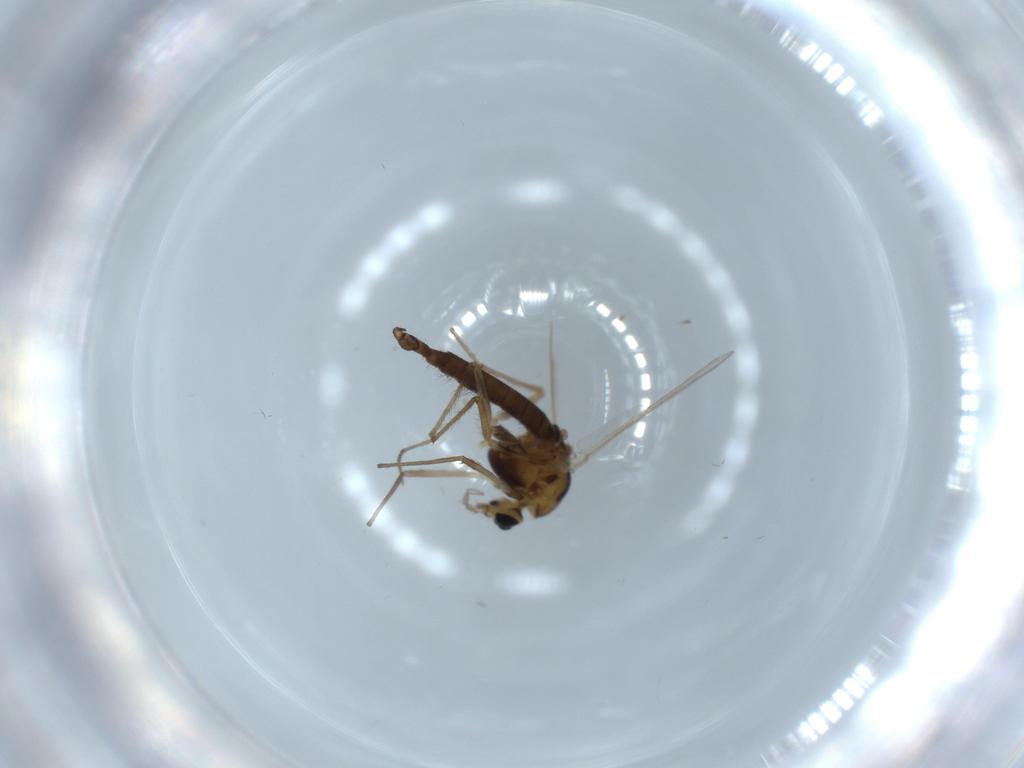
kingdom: Animalia
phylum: Arthropoda
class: Insecta
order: Diptera
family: Chironomidae
